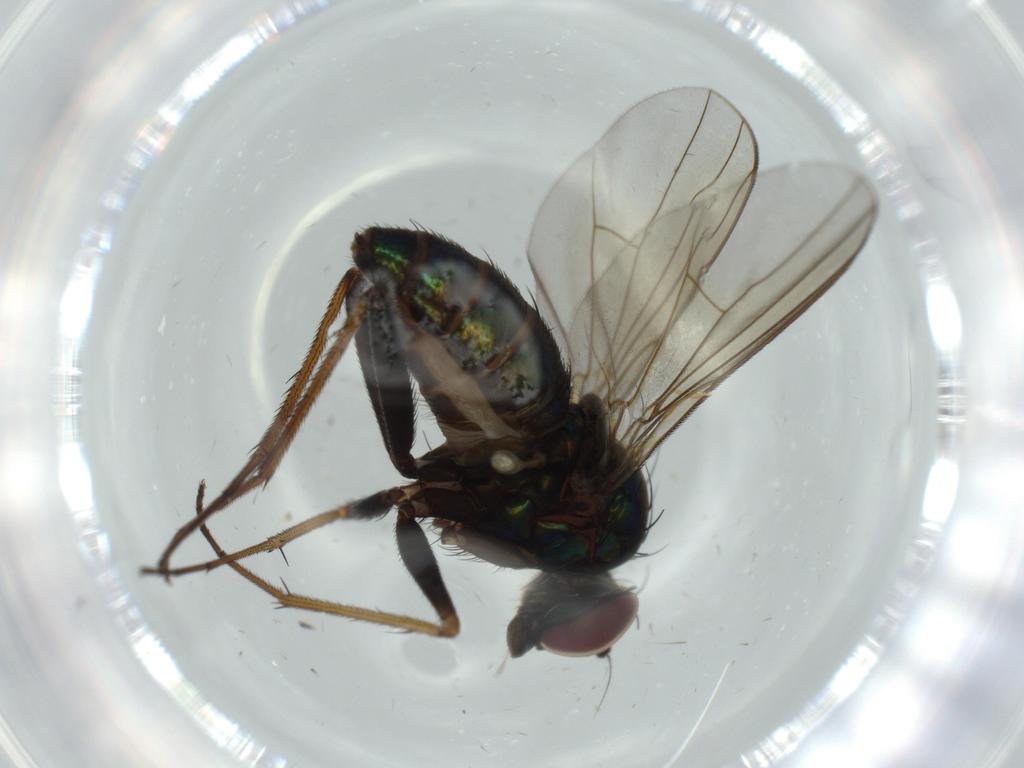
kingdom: Animalia
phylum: Arthropoda
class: Insecta
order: Diptera
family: Dolichopodidae
